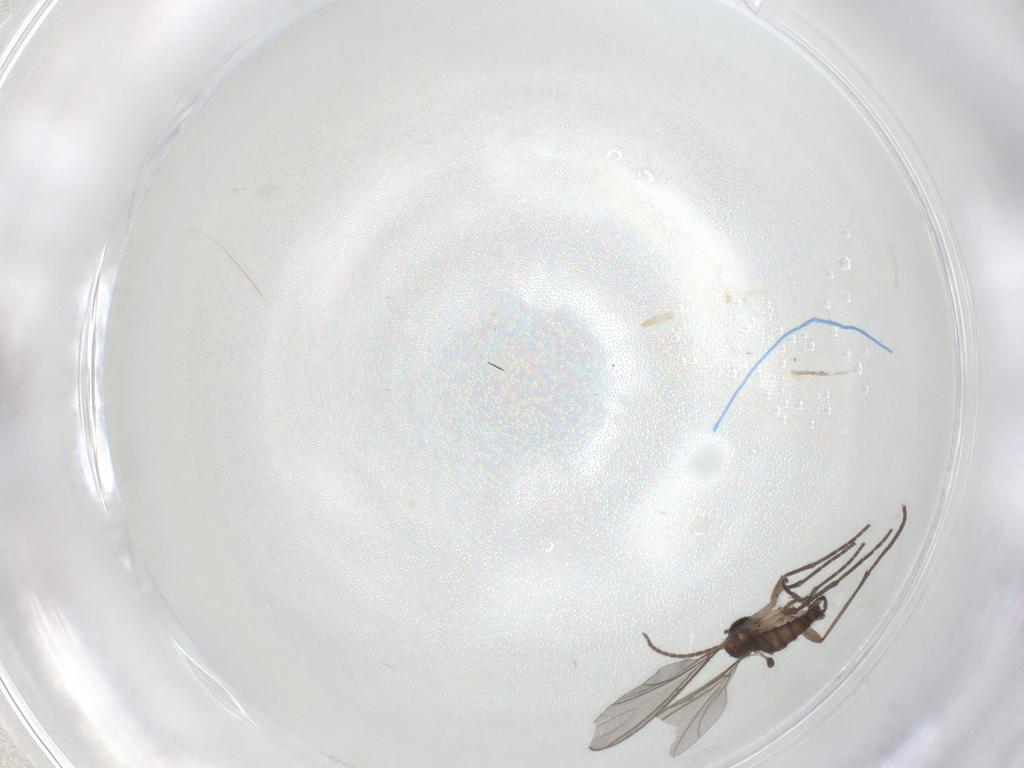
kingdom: Animalia
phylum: Arthropoda
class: Insecta
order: Diptera
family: Sciaridae
